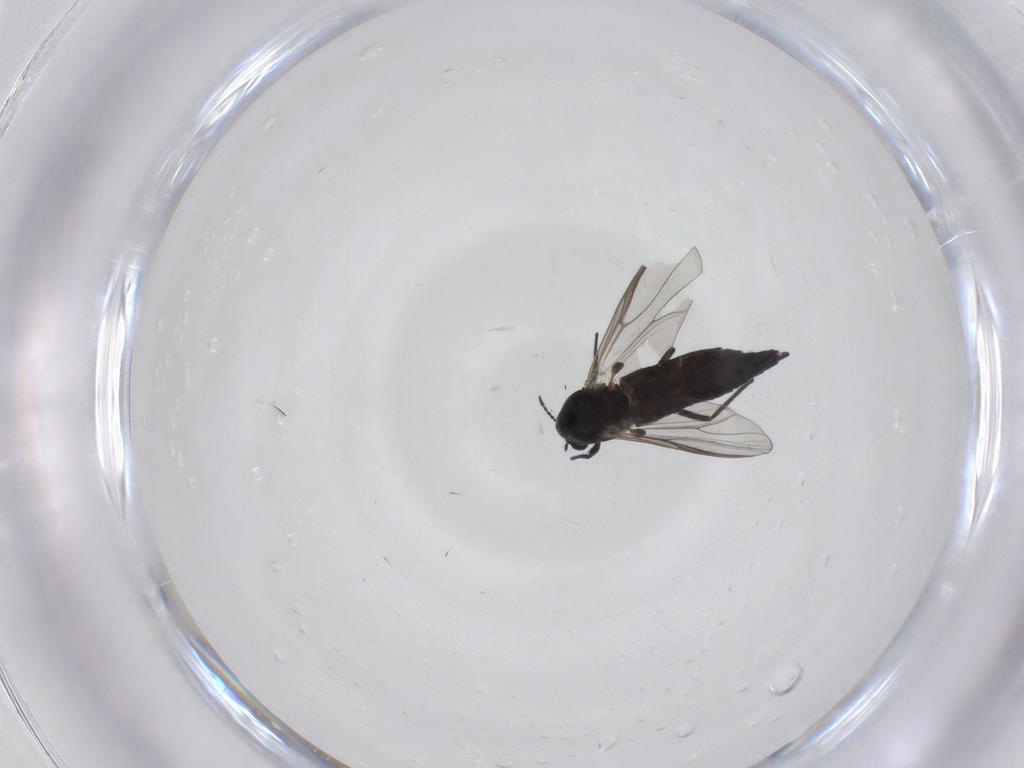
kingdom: Animalia
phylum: Arthropoda
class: Insecta
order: Diptera
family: Chironomidae
